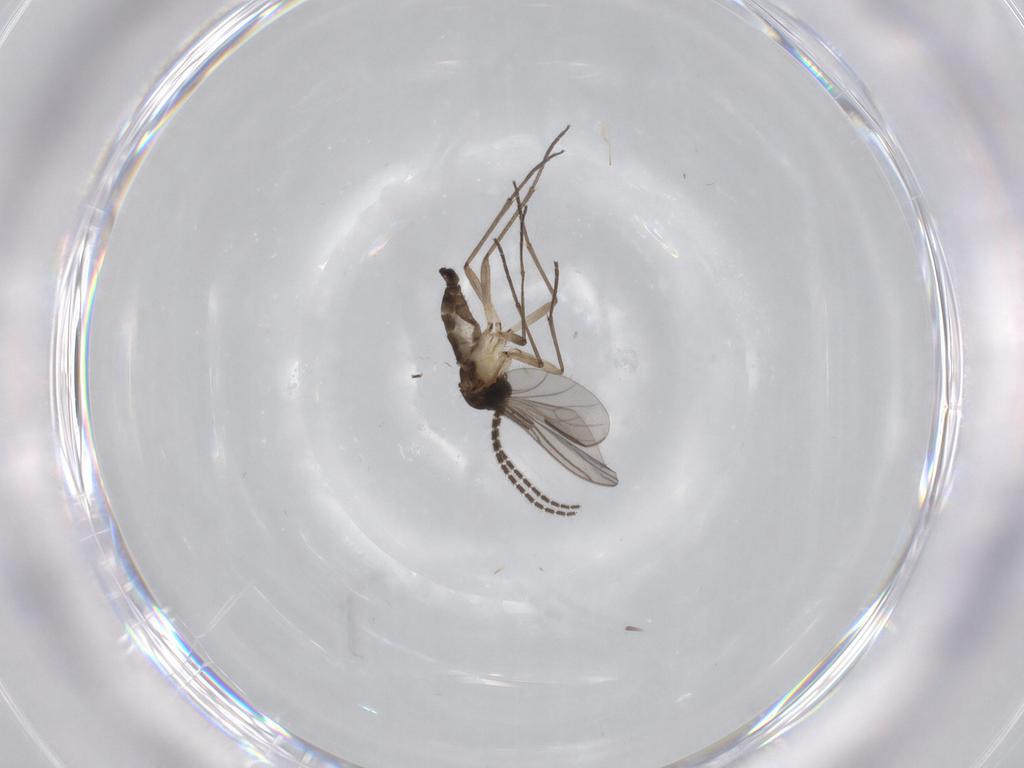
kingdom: Animalia
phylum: Arthropoda
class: Insecta
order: Diptera
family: Sciaridae
